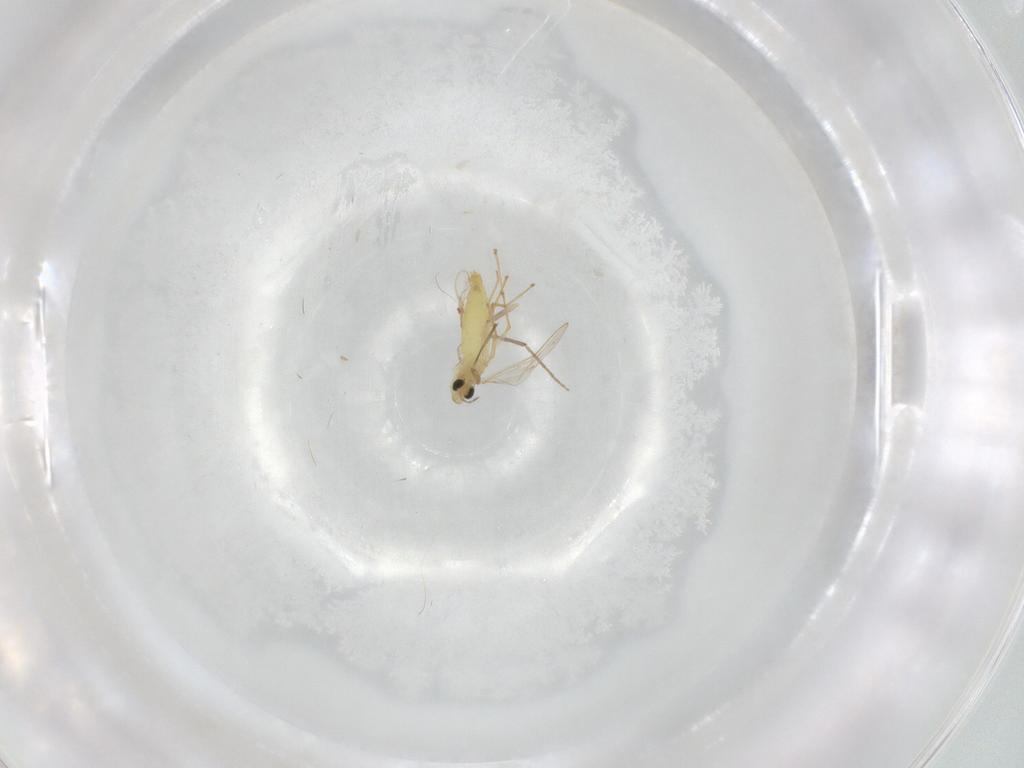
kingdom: Animalia
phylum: Arthropoda
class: Insecta
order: Diptera
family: Chironomidae
